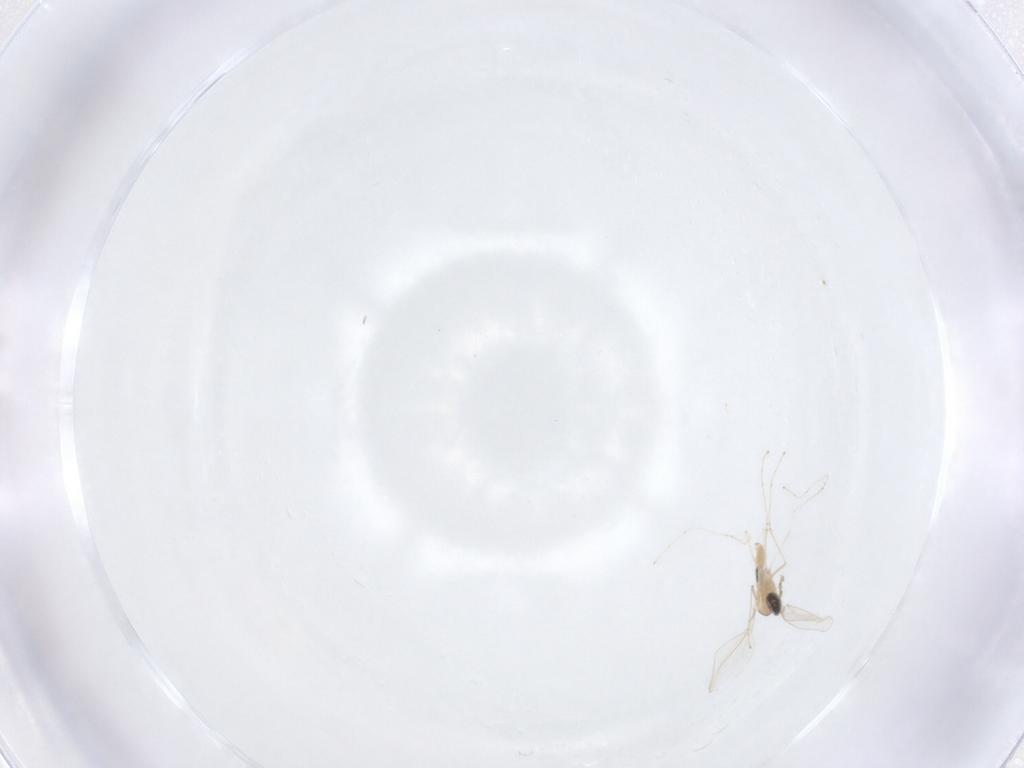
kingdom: Animalia
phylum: Arthropoda
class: Insecta
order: Diptera
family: Cecidomyiidae
